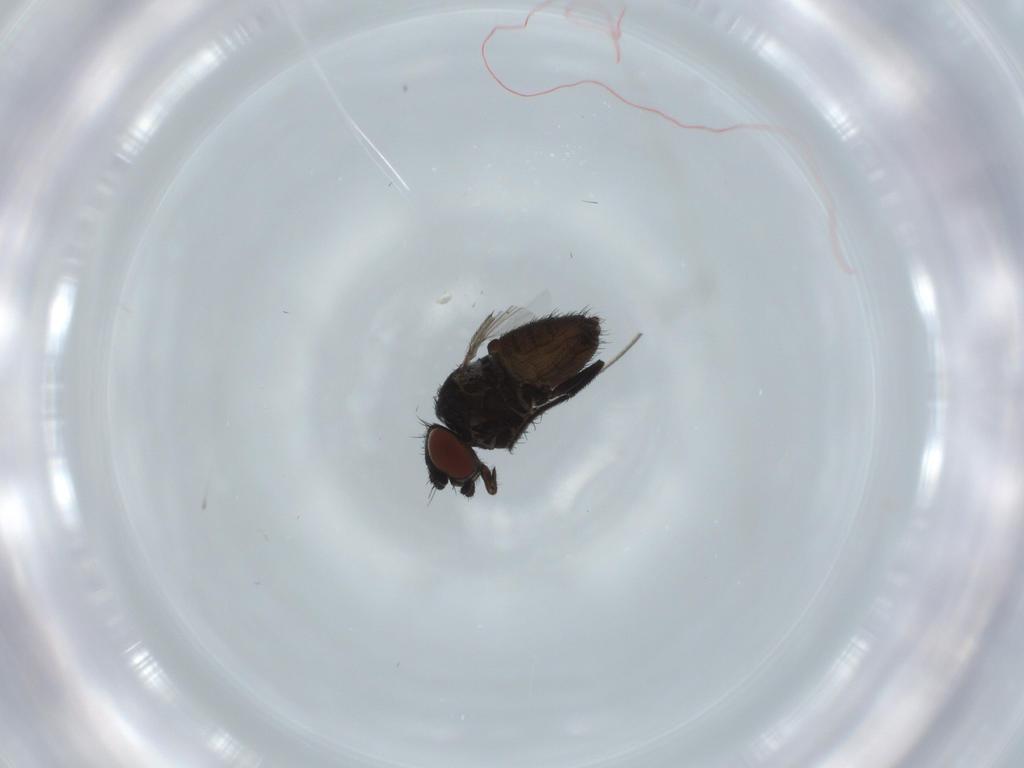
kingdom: Animalia
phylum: Arthropoda
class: Insecta
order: Diptera
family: Milichiidae
